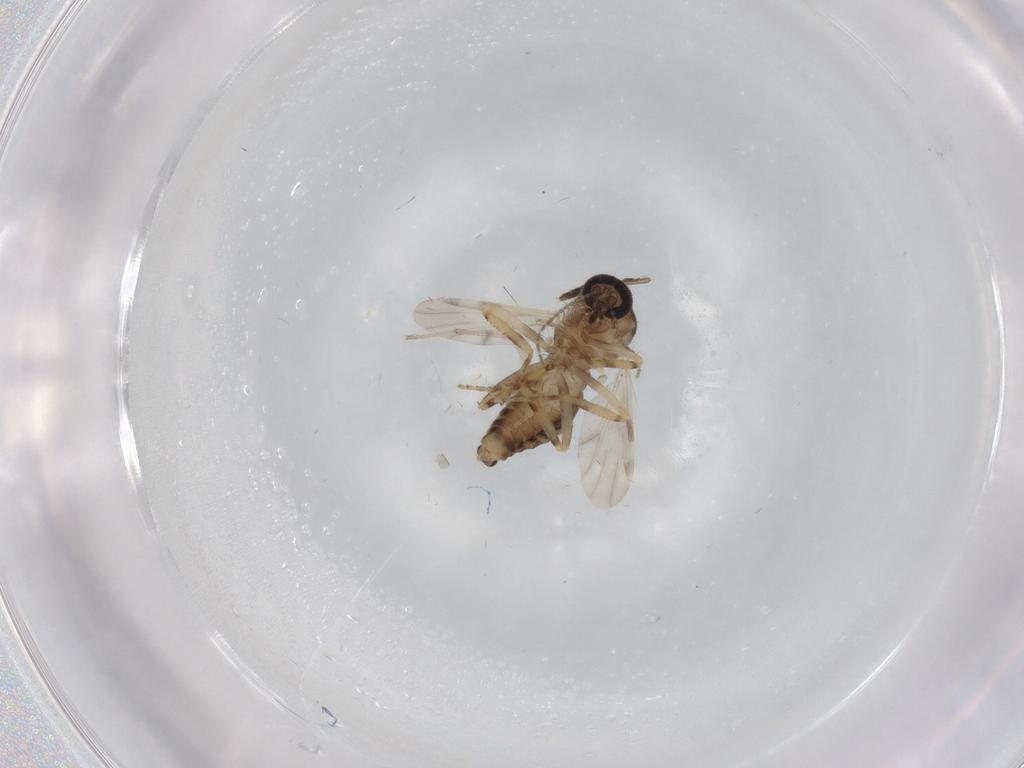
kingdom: Animalia
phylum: Arthropoda
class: Insecta
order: Diptera
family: Ceratopogonidae
